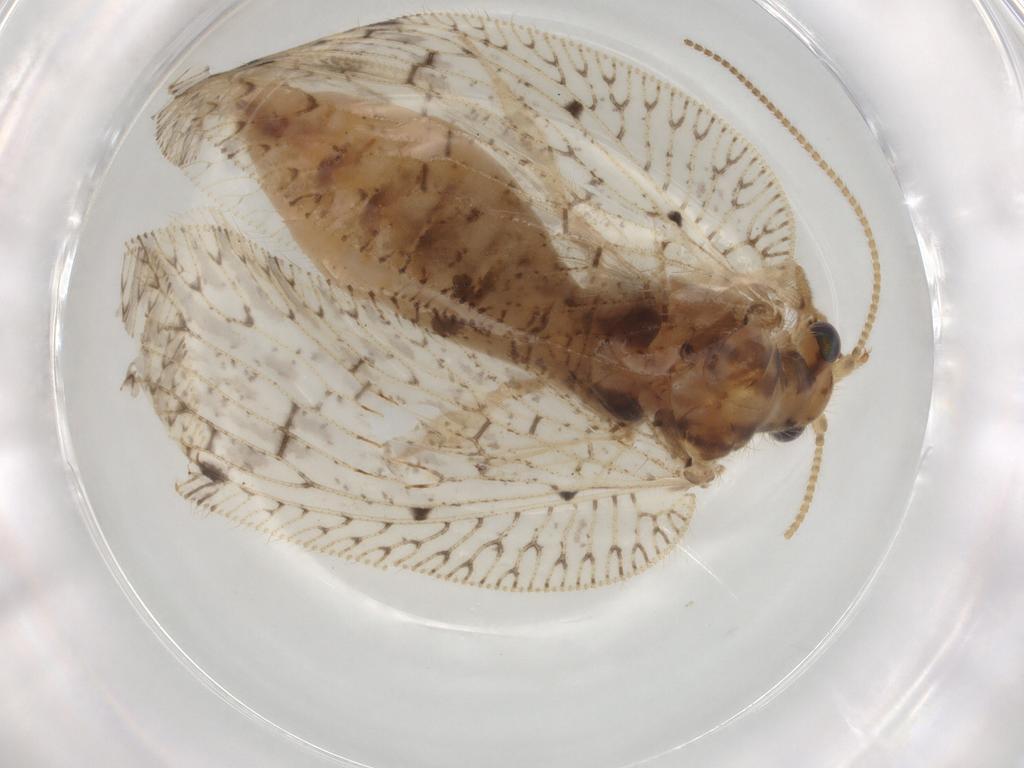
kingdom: Animalia
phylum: Arthropoda
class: Insecta
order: Neuroptera
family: Hemerobiidae
